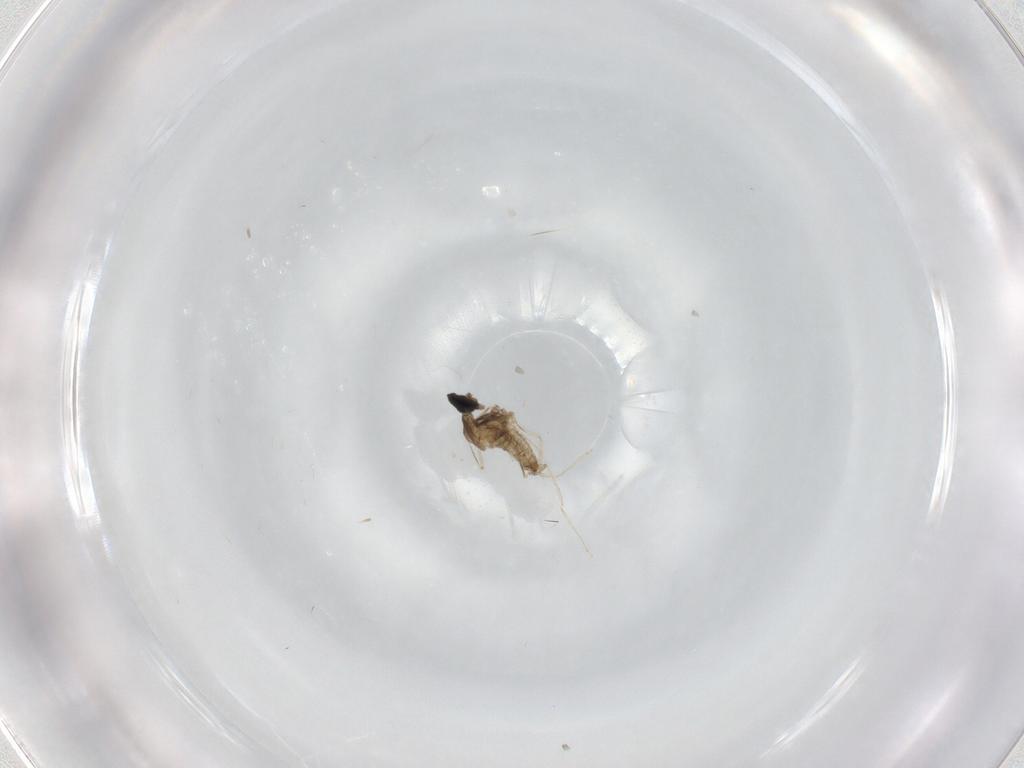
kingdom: Animalia
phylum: Arthropoda
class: Insecta
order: Diptera
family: Cecidomyiidae
